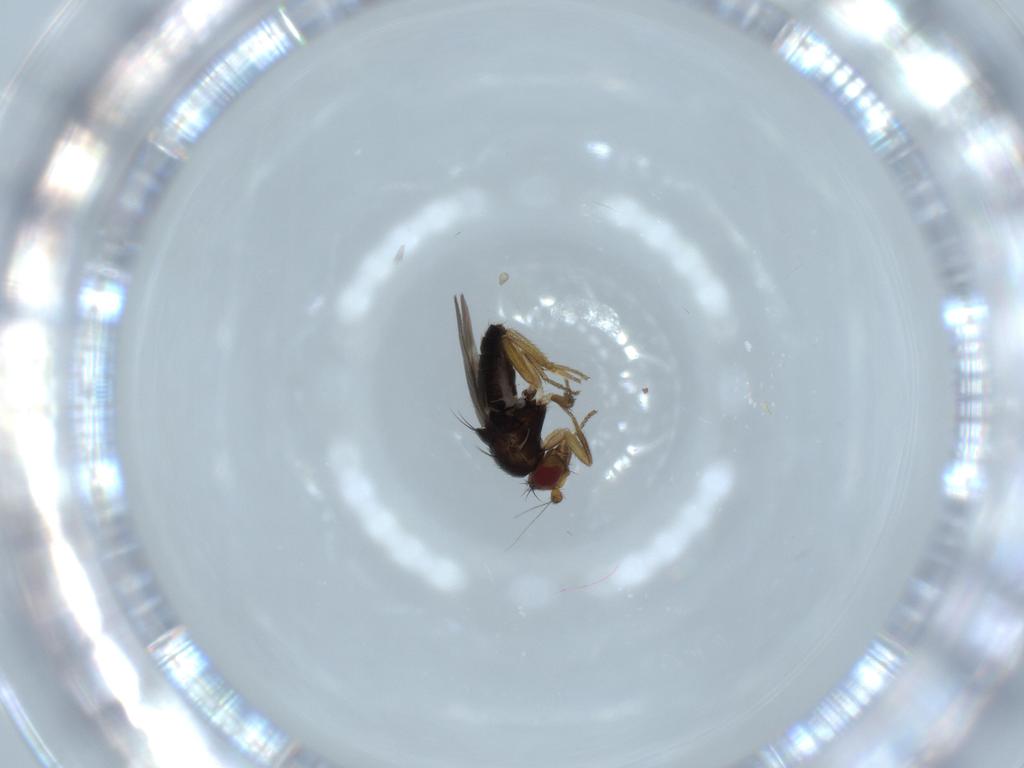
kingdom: Animalia
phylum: Arthropoda
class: Insecta
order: Diptera
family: Sphaeroceridae
